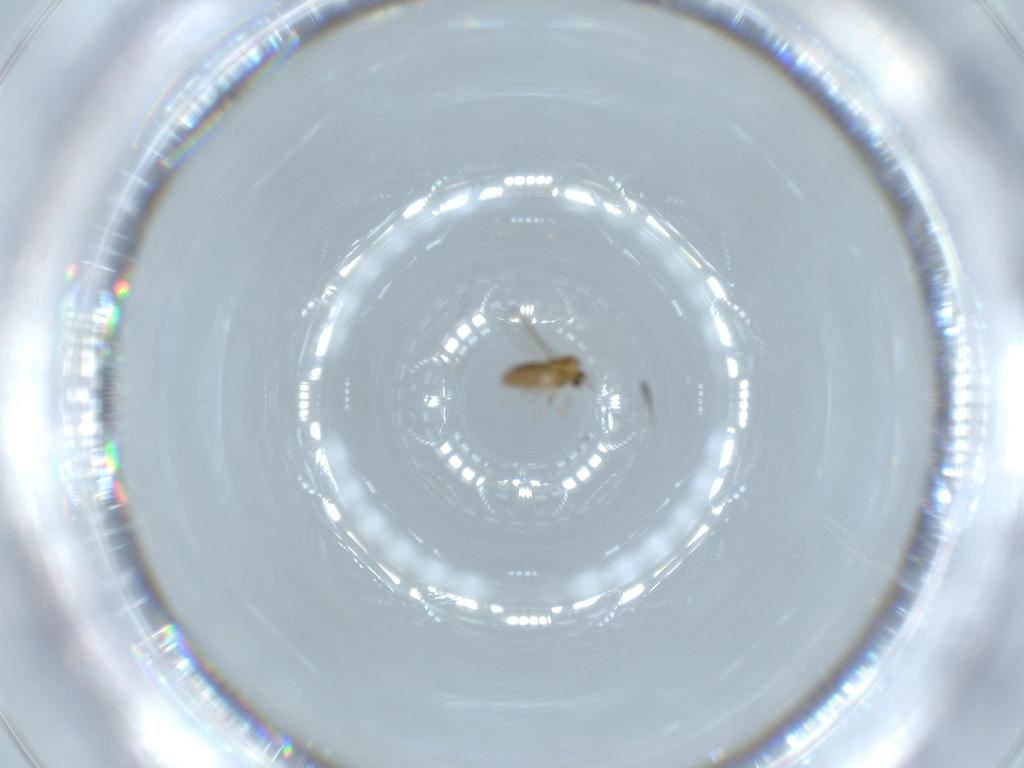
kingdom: Animalia
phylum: Arthropoda
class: Insecta
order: Diptera
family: Chironomidae
